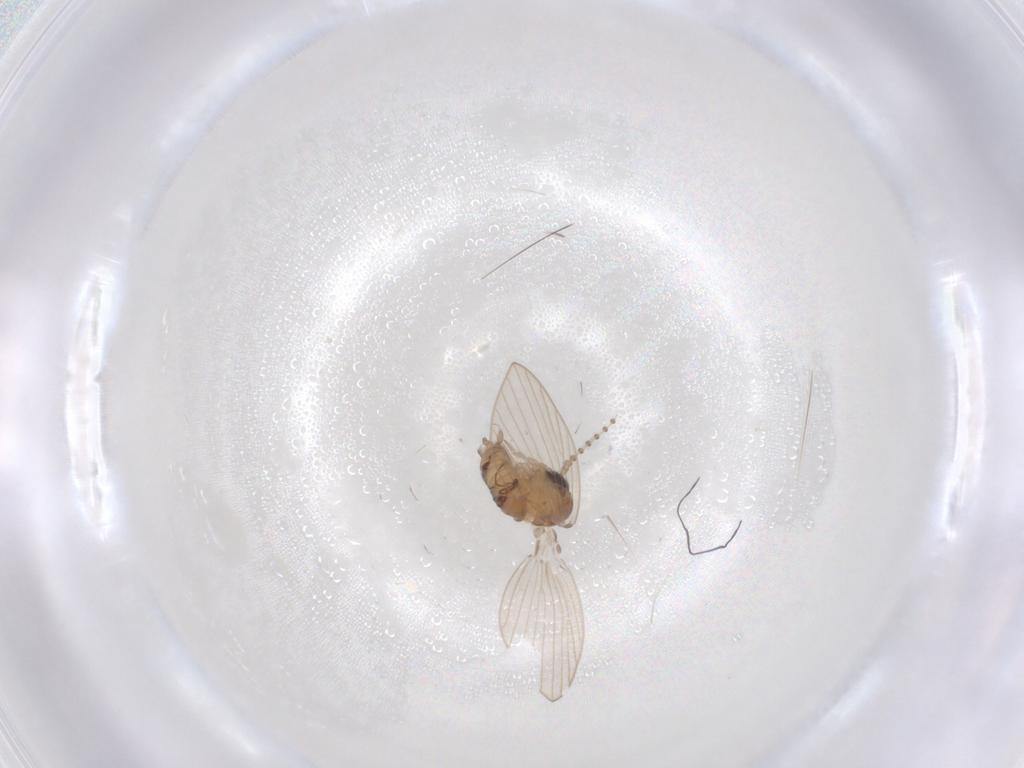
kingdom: Animalia
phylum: Arthropoda
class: Insecta
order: Diptera
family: Psychodidae
